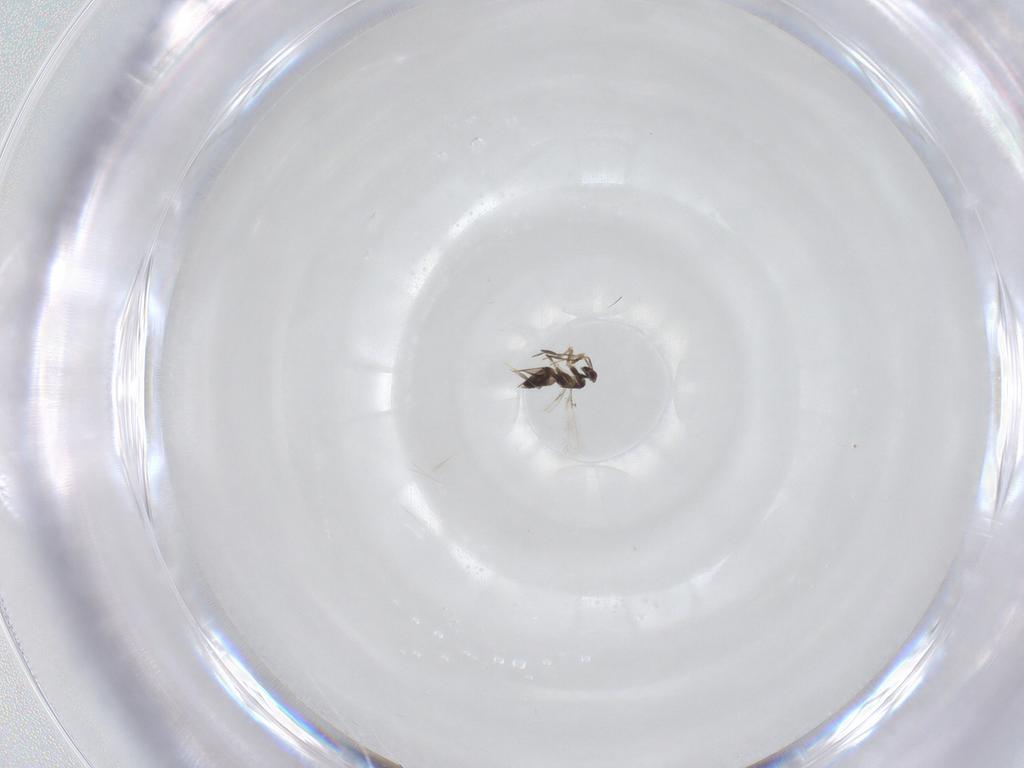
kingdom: Animalia
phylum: Arthropoda
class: Insecta
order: Hymenoptera
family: Mymaridae
